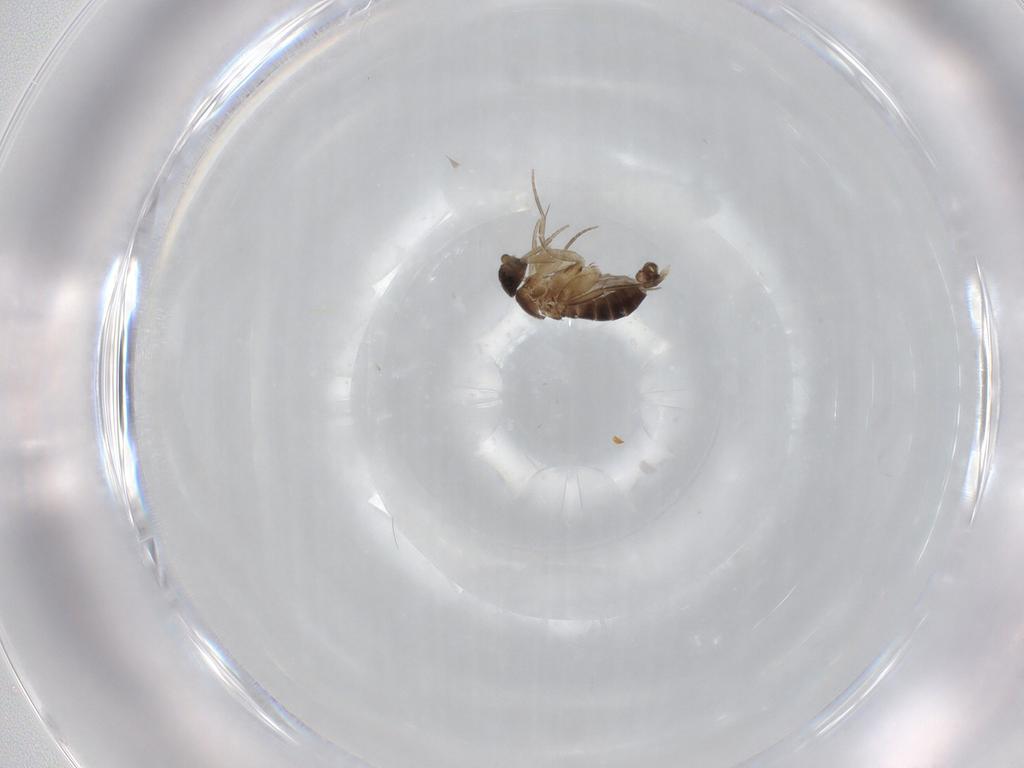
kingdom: Animalia
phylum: Arthropoda
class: Insecta
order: Diptera
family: Phoridae
